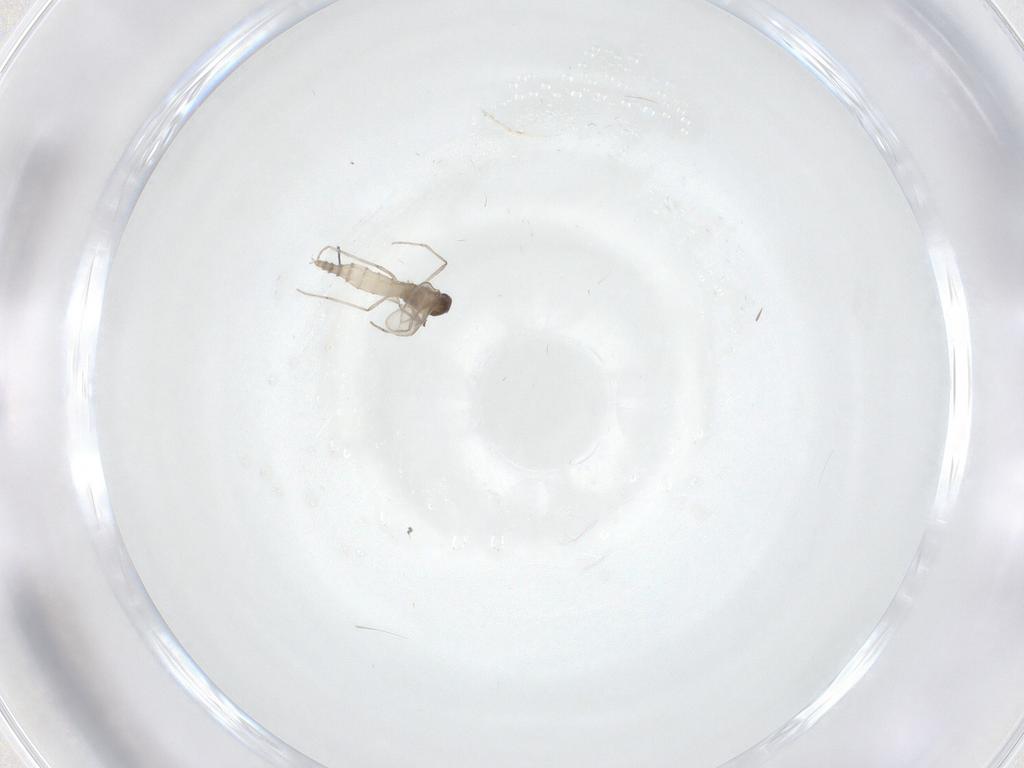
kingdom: Animalia
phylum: Arthropoda
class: Insecta
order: Diptera
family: Cecidomyiidae
